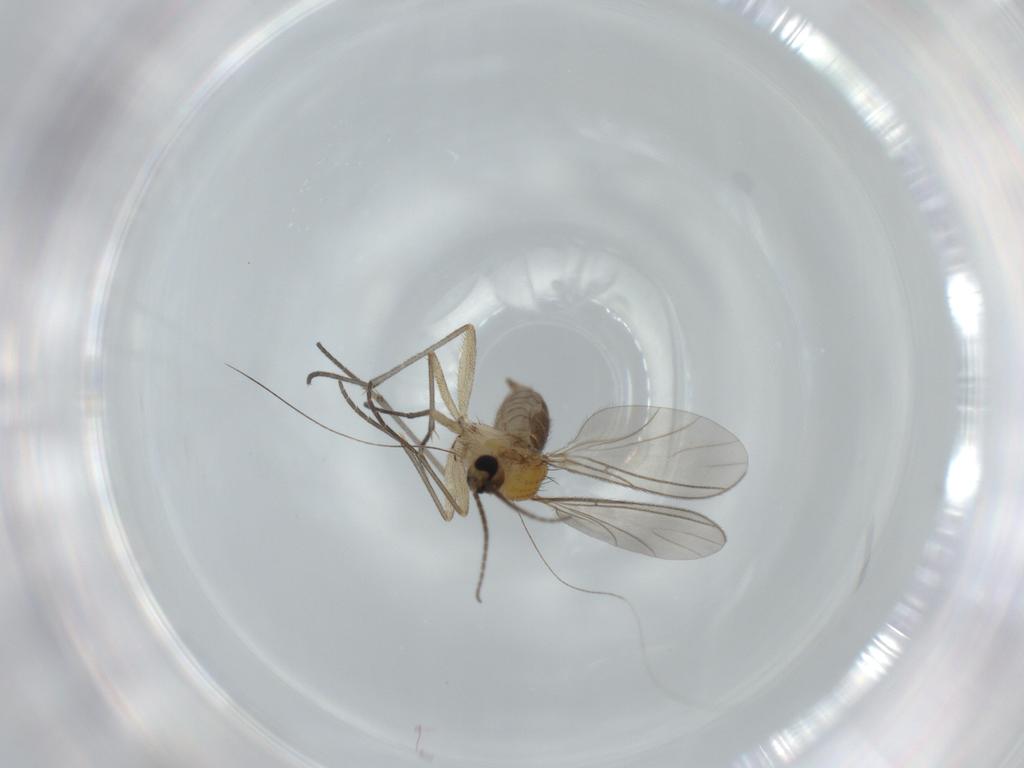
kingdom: Animalia
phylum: Arthropoda
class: Insecta
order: Diptera
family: Sciaridae
